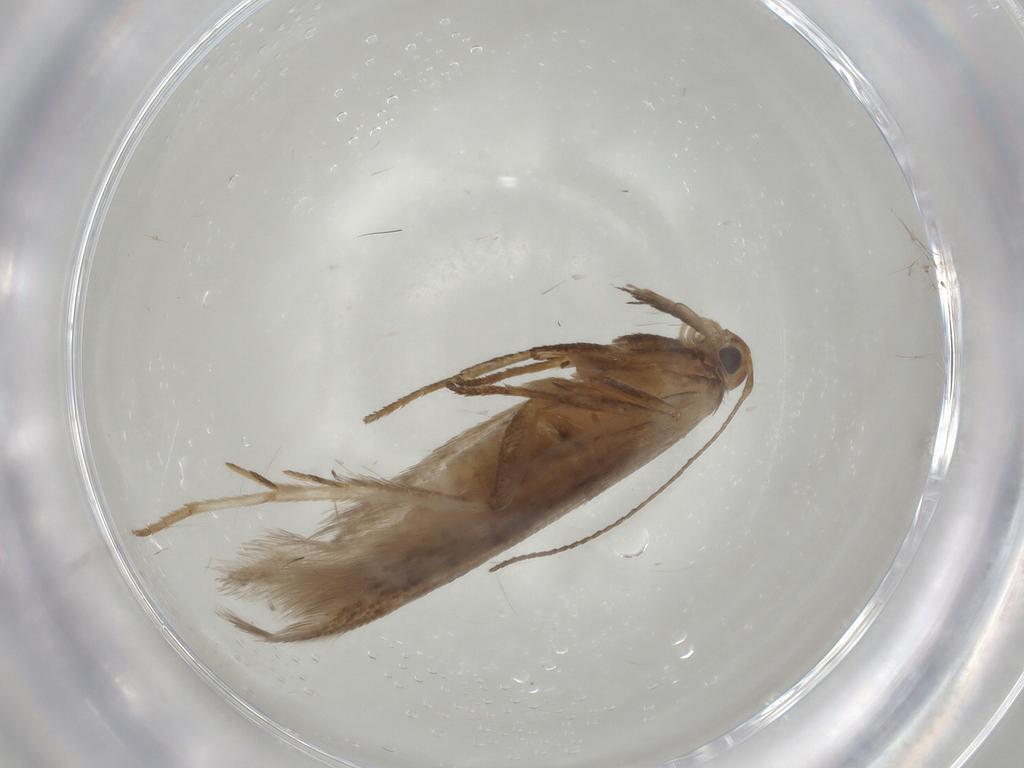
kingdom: Animalia
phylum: Arthropoda
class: Insecta
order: Lepidoptera
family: Gelechiidae
